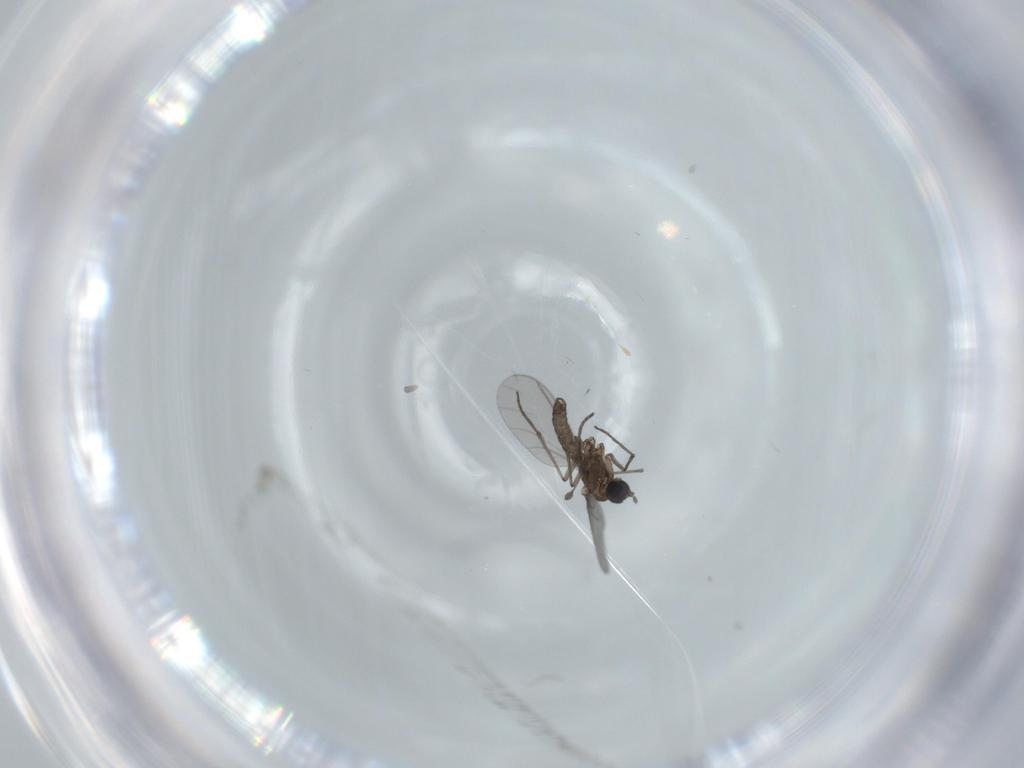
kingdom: Animalia
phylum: Arthropoda
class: Insecta
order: Diptera
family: Sciaridae
